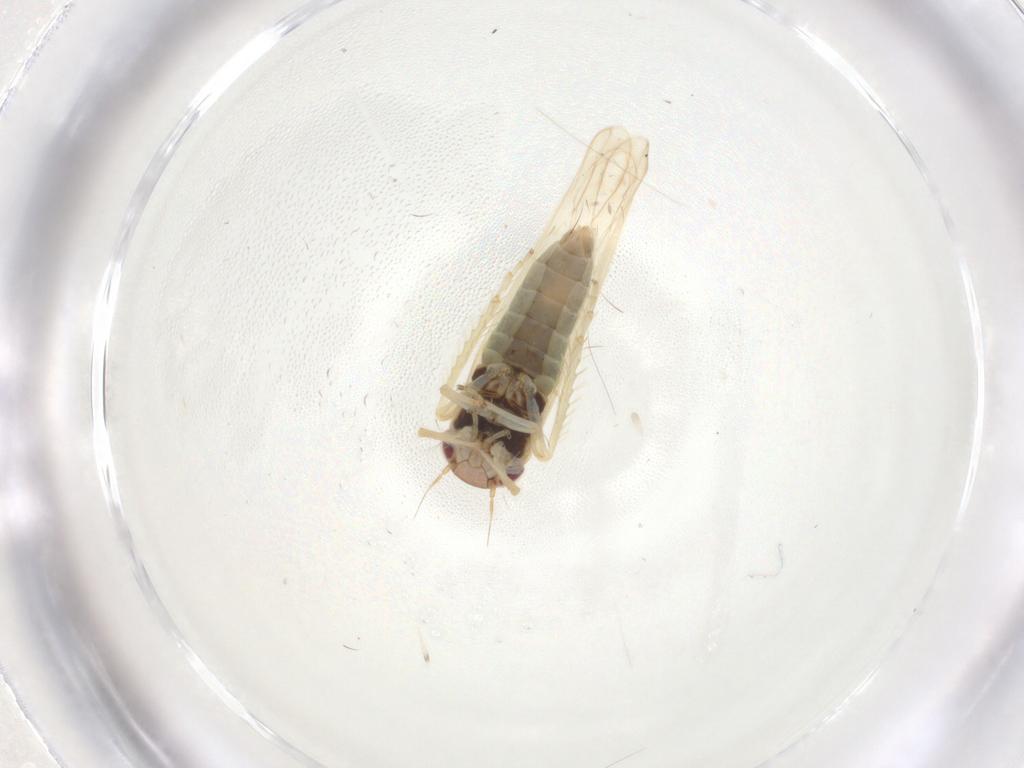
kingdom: Animalia
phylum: Arthropoda
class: Insecta
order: Hemiptera
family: Cicadellidae
